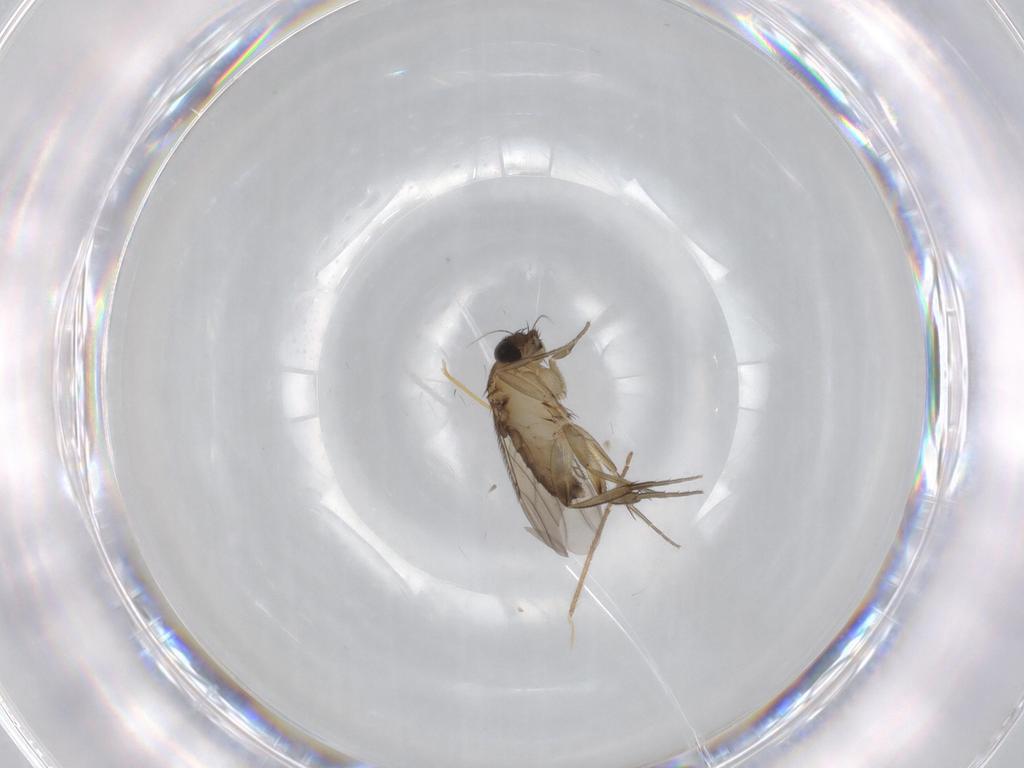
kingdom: Animalia
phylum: Arthropoda
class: Insecta
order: Diptera
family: Phoridae
